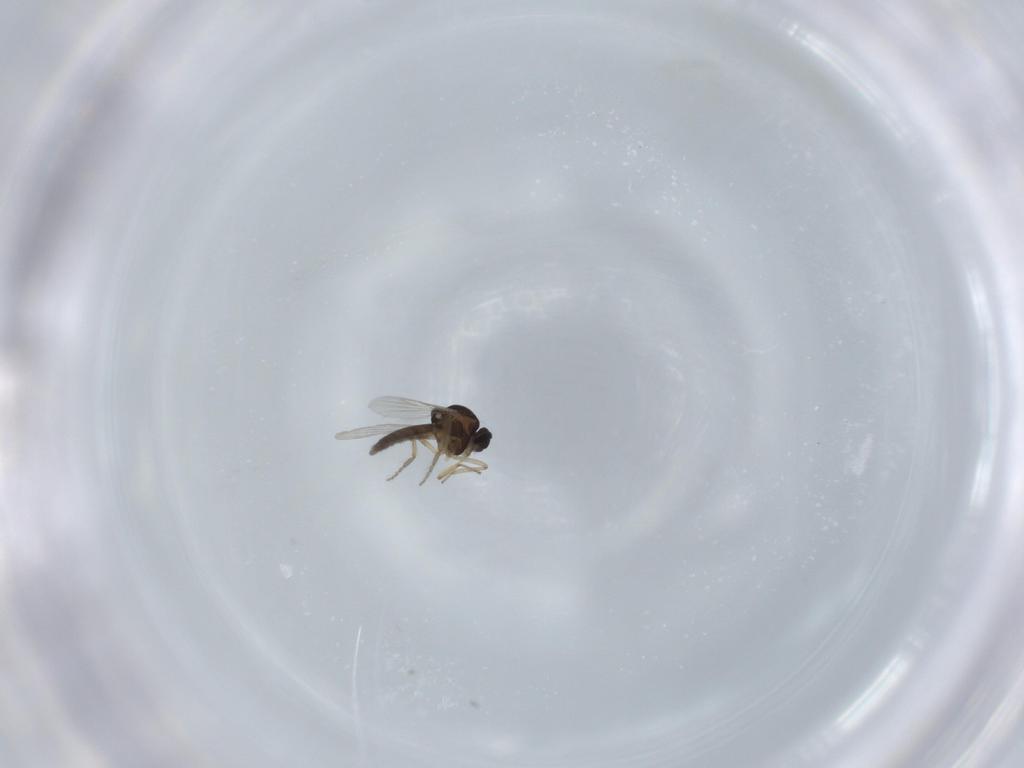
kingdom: Animalia
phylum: Arthropoda
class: Insecta
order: Diptera
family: Ceratopogonidae
